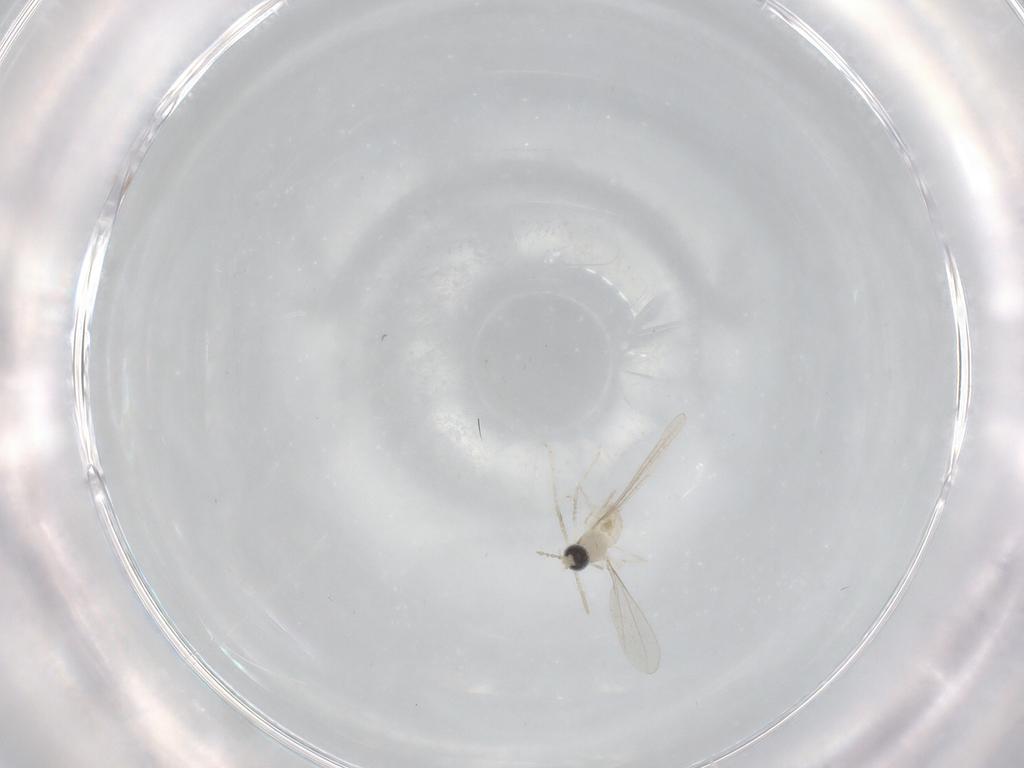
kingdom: Animalia
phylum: Arthropoda
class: Insecta
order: Diptera
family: Cecidomyiidae
